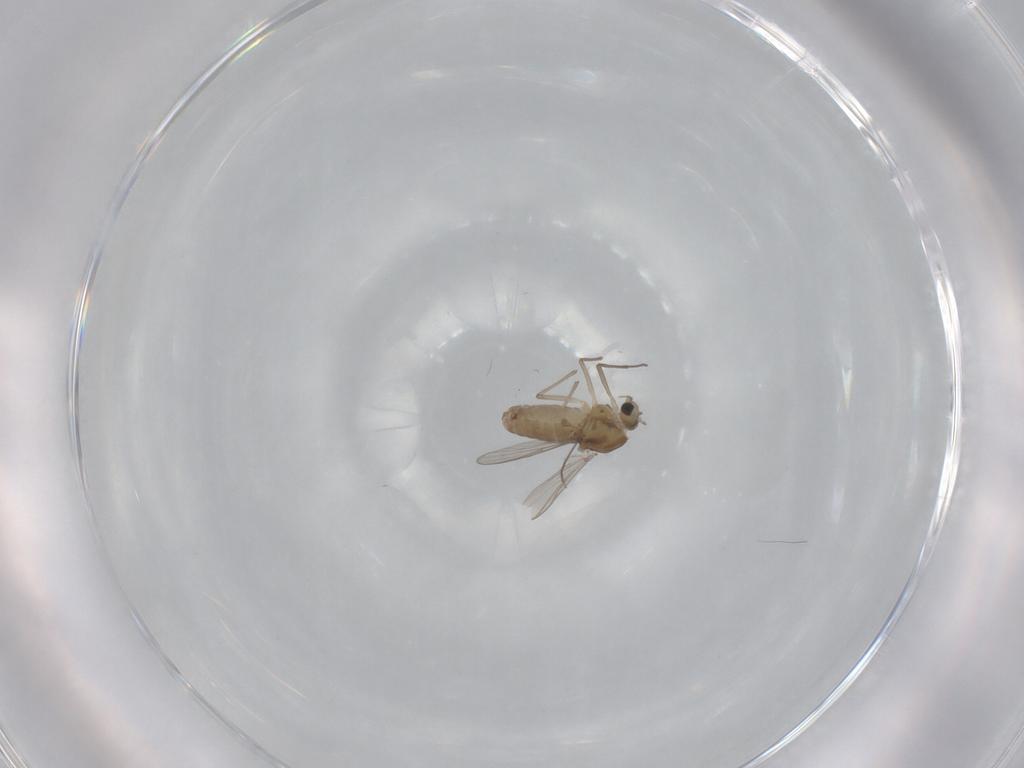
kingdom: Animalia
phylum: Arthropoda
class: Insecta
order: Diptera
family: Chironomidae
